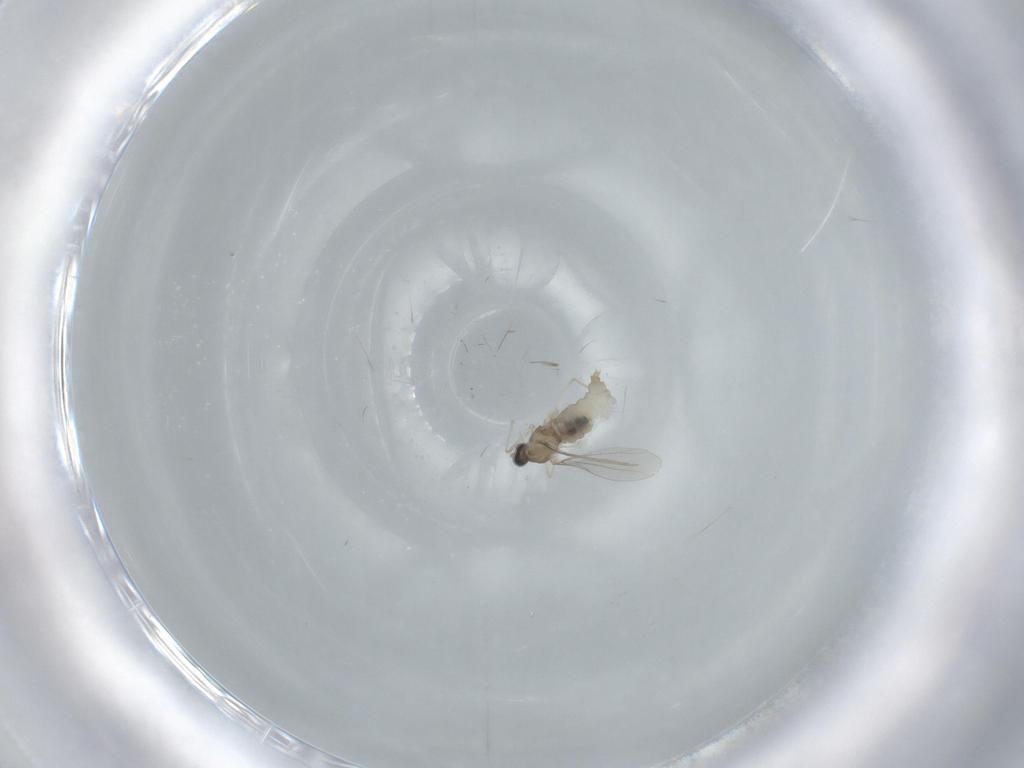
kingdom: Animalia
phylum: Arthropoda
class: Insecta
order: Diptera
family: Cecidomyiidae
